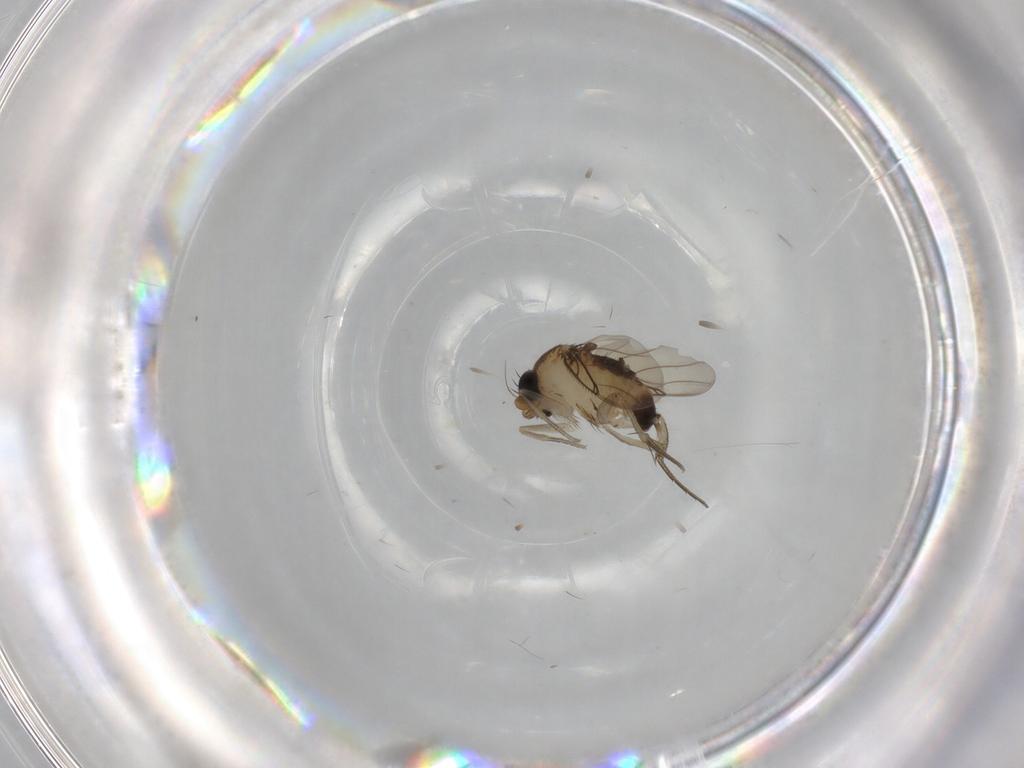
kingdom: Animalia
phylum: Arthropoda
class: Insecta
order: Diptera
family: Phoridae
